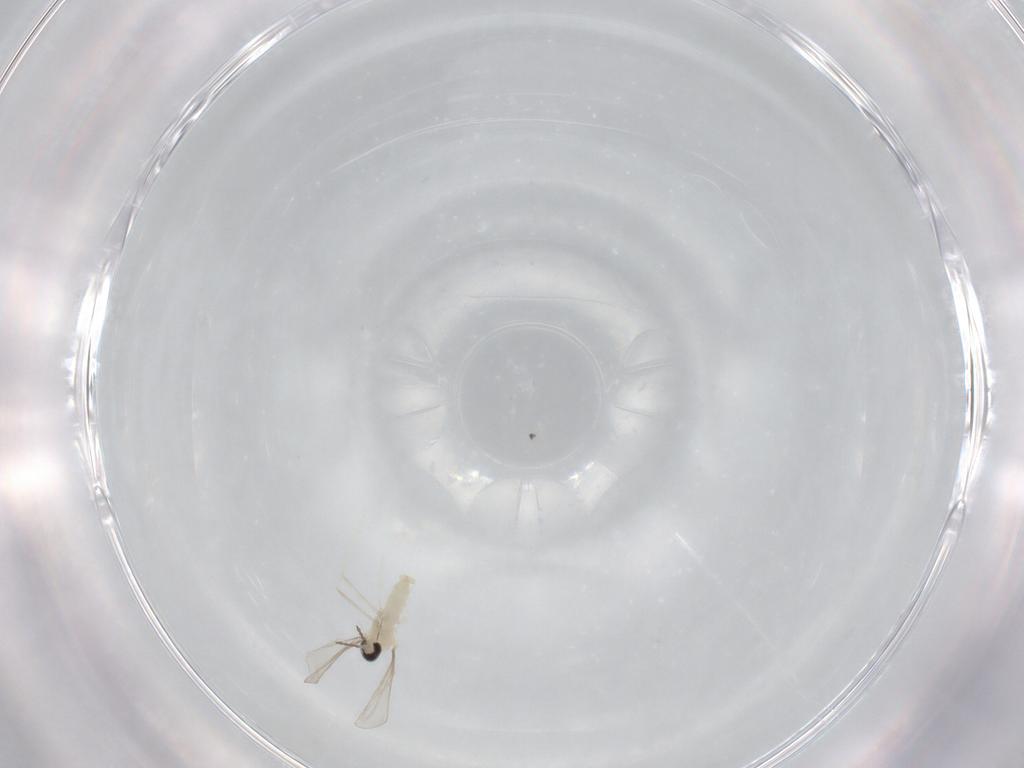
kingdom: Animalia
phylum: Arthropoda
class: Insecta
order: Diptera
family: Cecidomyiidae
